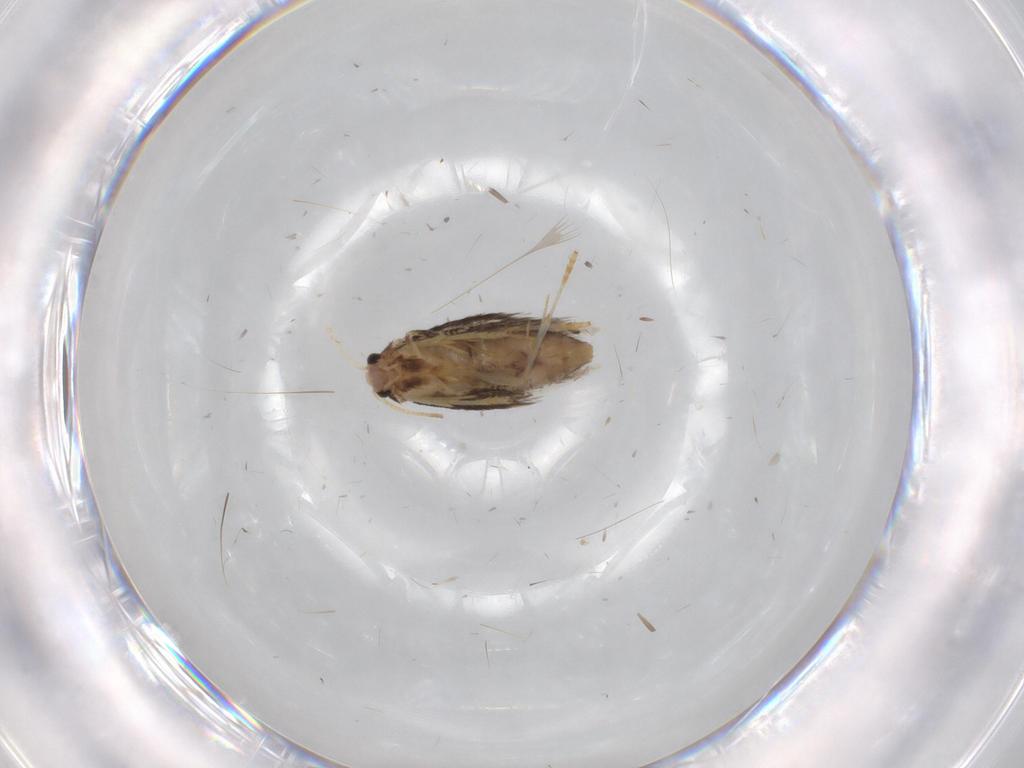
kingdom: Animalia
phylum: Arthropoda
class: Insecta
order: Lepidoptera
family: Nepticulidae
